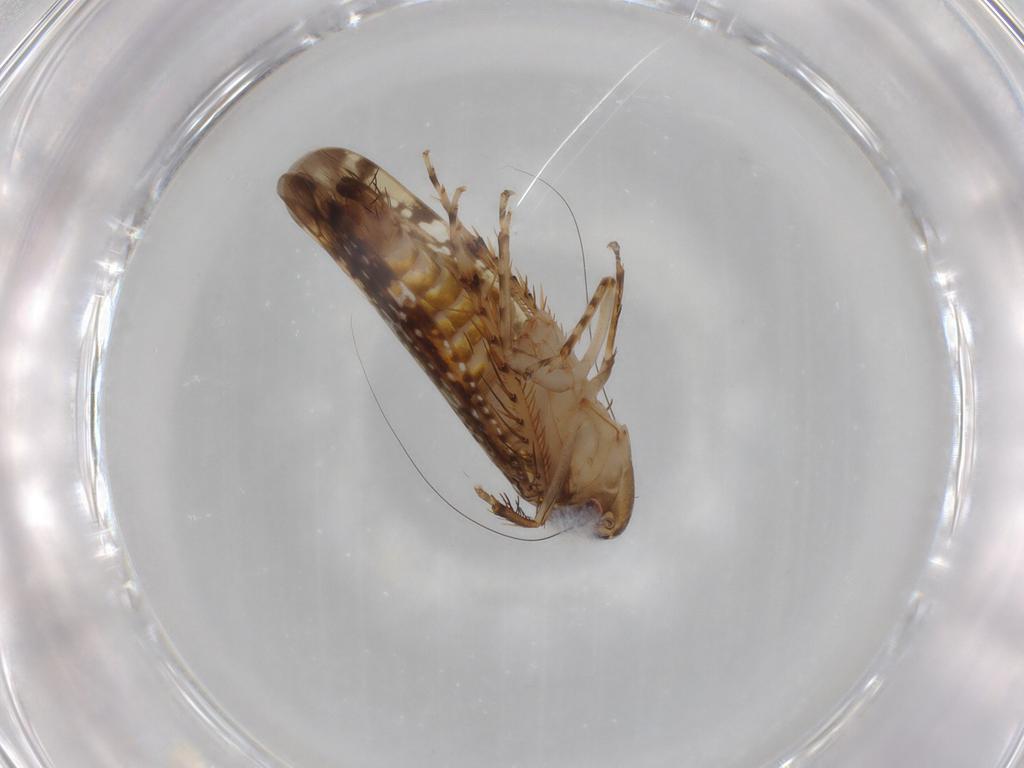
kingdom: Animalia
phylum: Arthropoda
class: Insecta
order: Hemiptera
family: Cicadellidae
